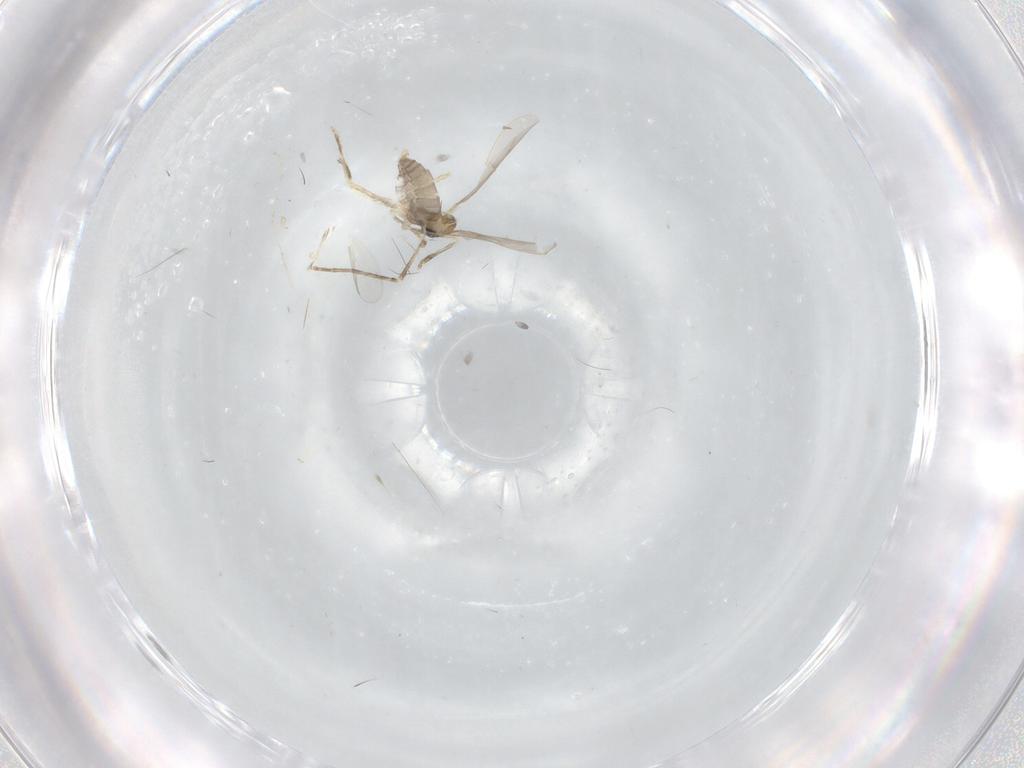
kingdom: Animalia
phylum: Arthropoda
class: Insecta
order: Diptera
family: Cecidomyiidae
